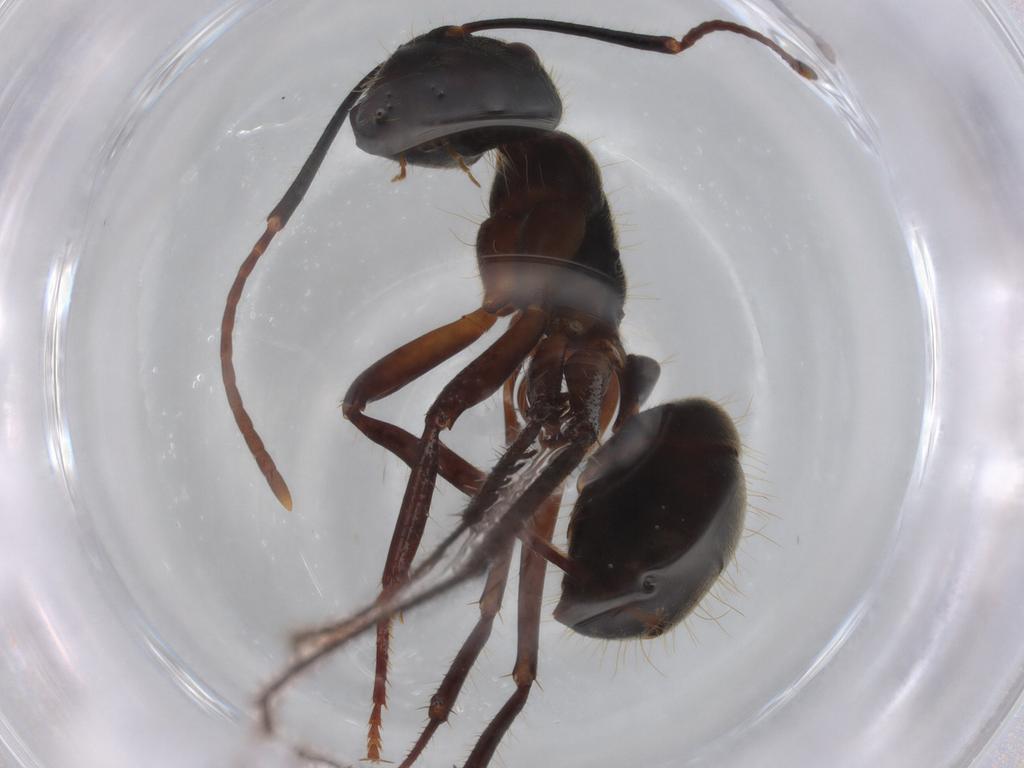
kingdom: Animalia
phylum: Arthropoda
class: Insecta
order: Hymenoptera
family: Formicidae
